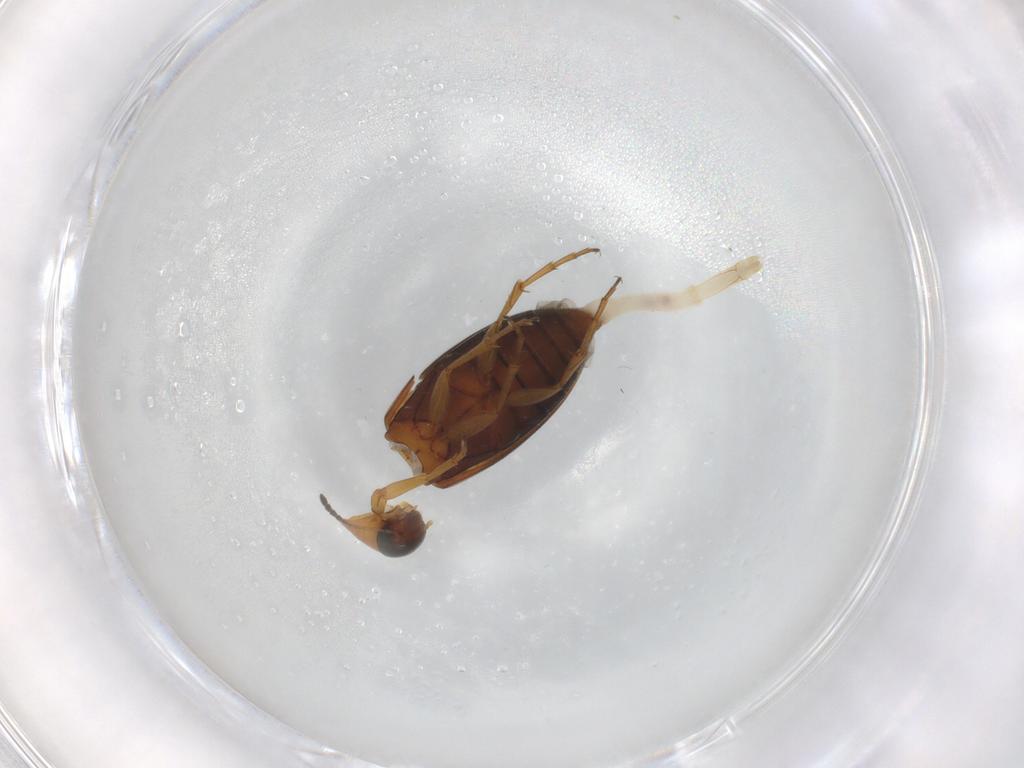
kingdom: Animalia
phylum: Arthropoda
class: Insecta
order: Coleoptera
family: Scraptiidae
